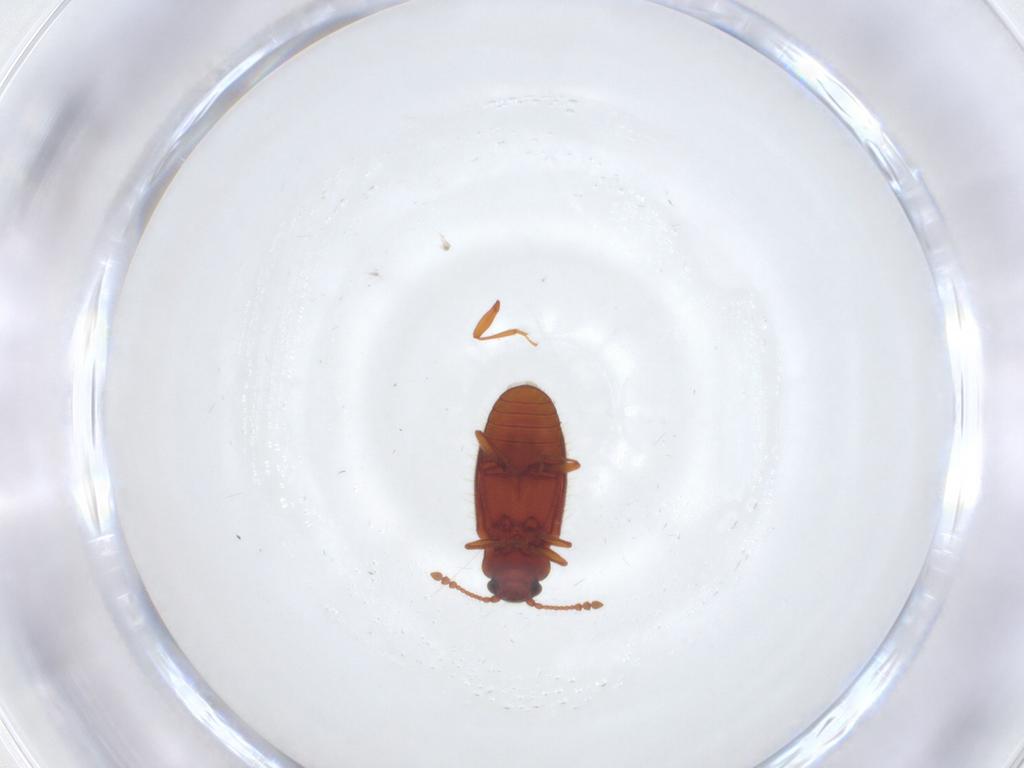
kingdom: Animalia
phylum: Arthropoda
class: Insecta
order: Coleoptera
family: Cryptophagidae
